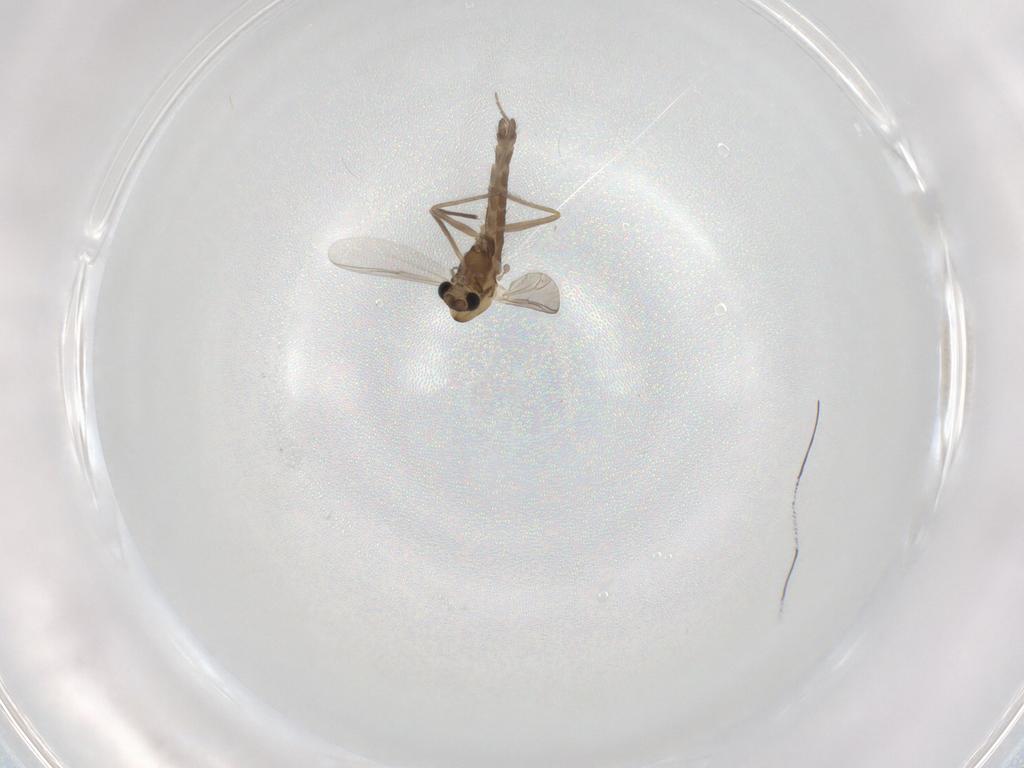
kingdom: Animalia
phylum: Arthropoda
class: Insecta
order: Diptera
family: Chironomidae
